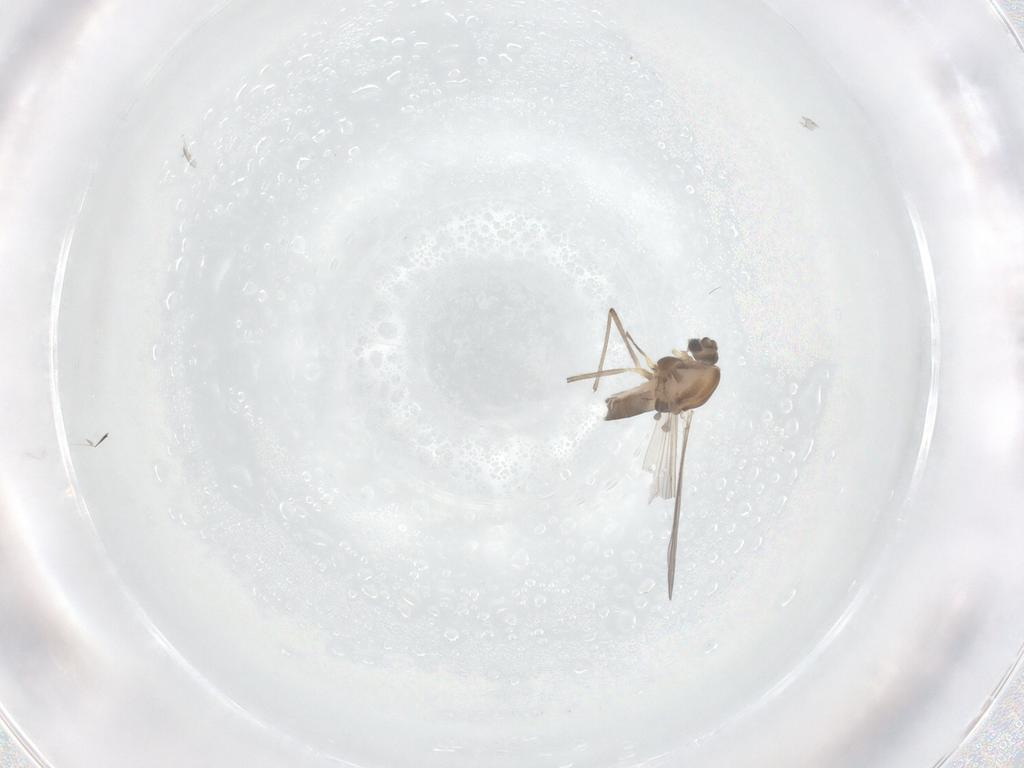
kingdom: Animalia
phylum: Arthropoda
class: Insecta
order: Diptera
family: Chironomidae
